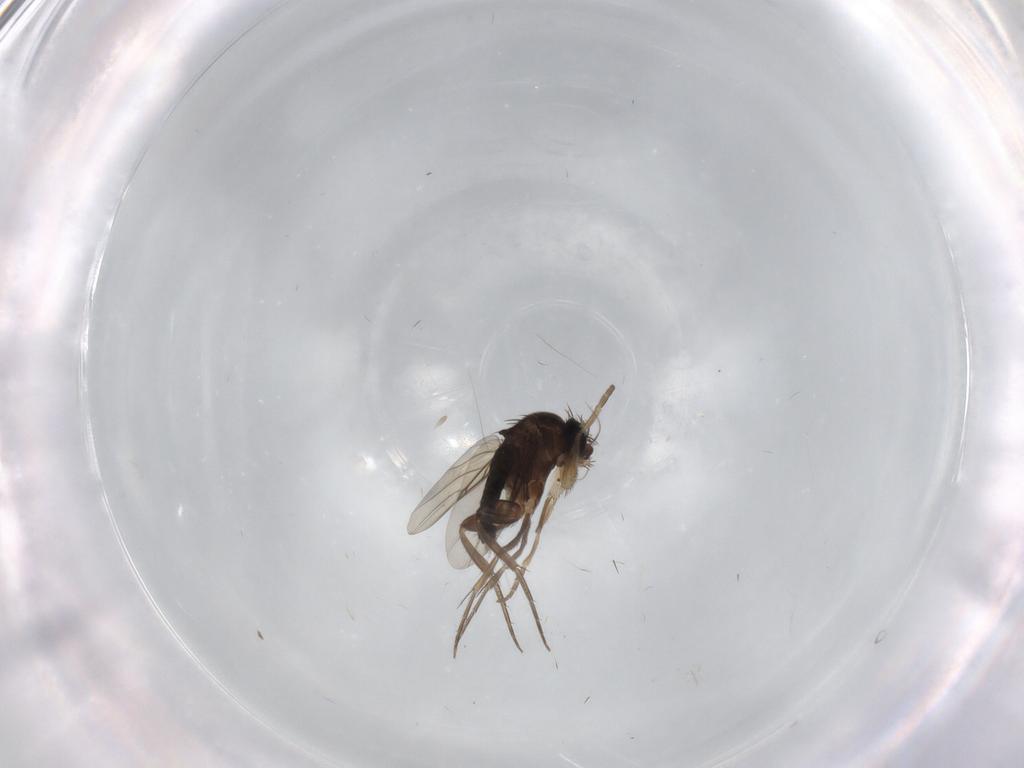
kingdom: Animalia
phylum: Arthropoda
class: Insecta
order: Diptera
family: Phoridae
